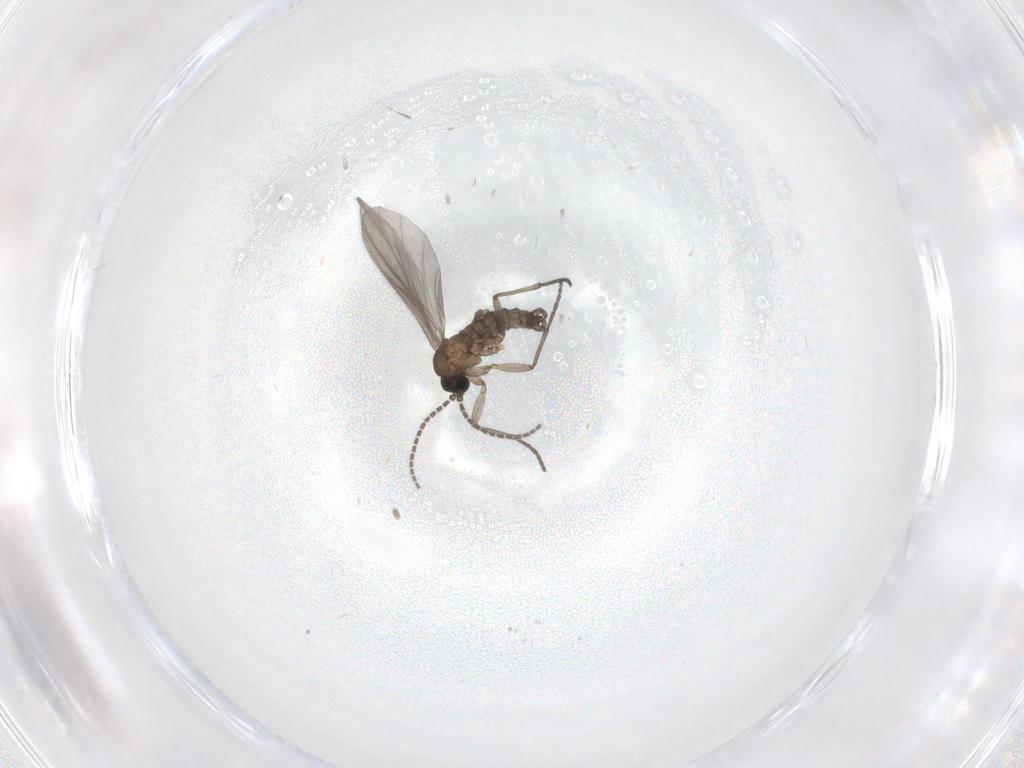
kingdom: Animalia
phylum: Arthropoda
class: Insecta
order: Diptera
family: Sciaridae
